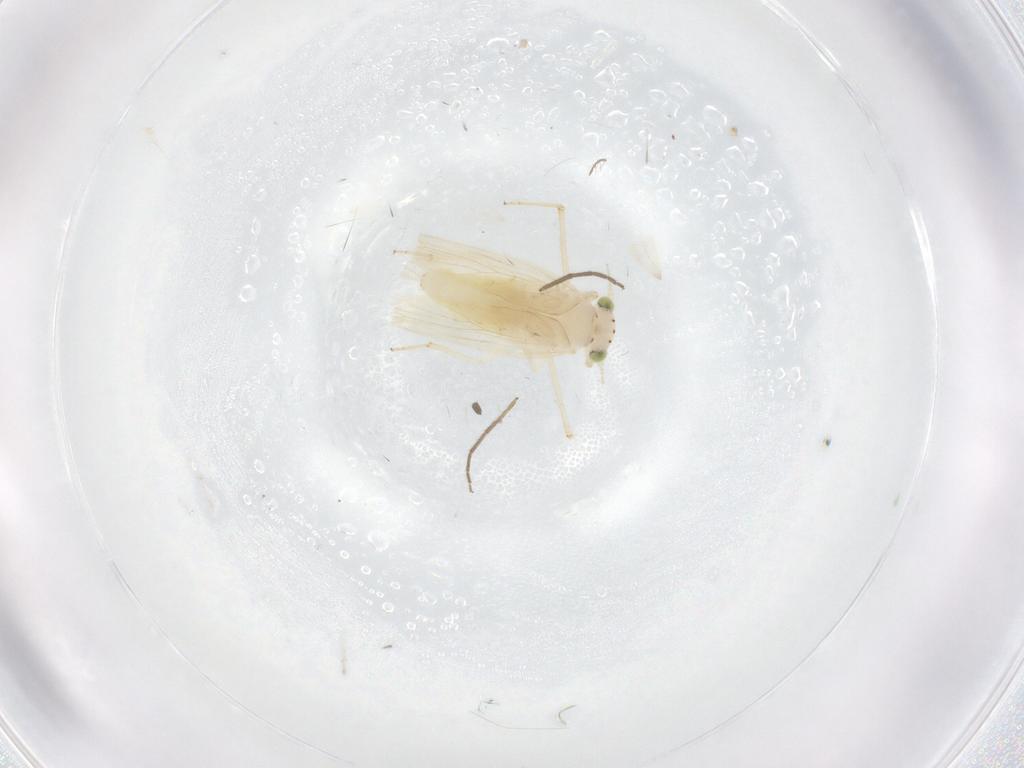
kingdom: Animalia
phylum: Arthropoda
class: Insecta
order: Psocodea
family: Lepidopsocidae
